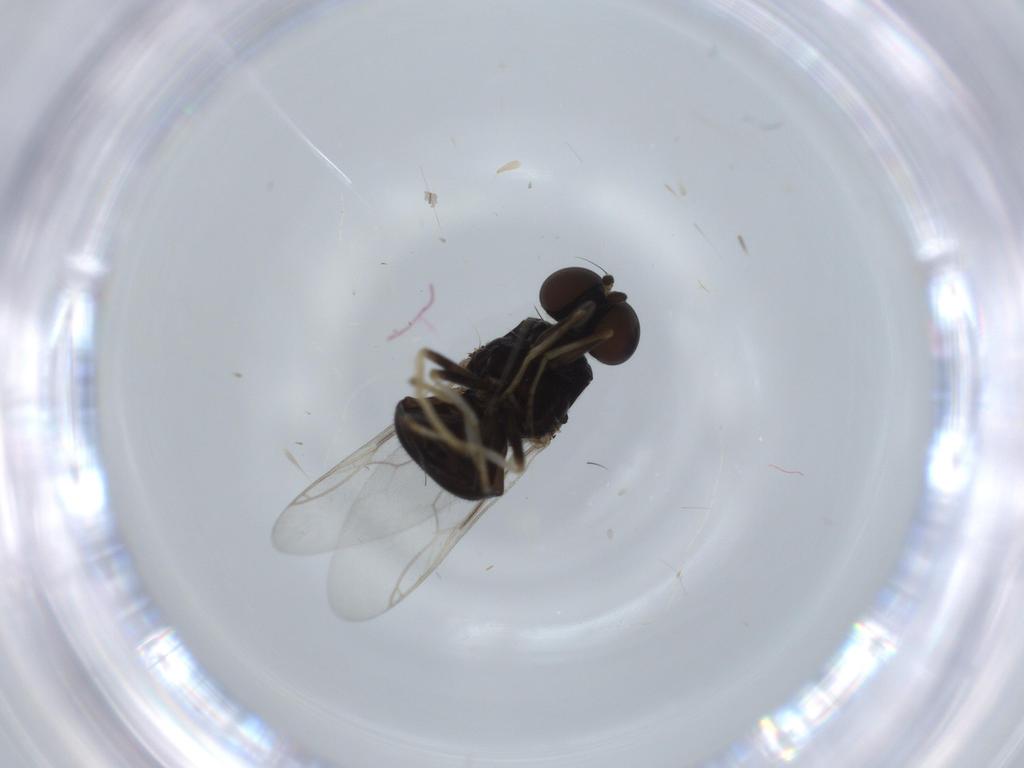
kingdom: Animalia
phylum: Arthropoda
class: Insecta
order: Diptera
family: Stratiomyidae
